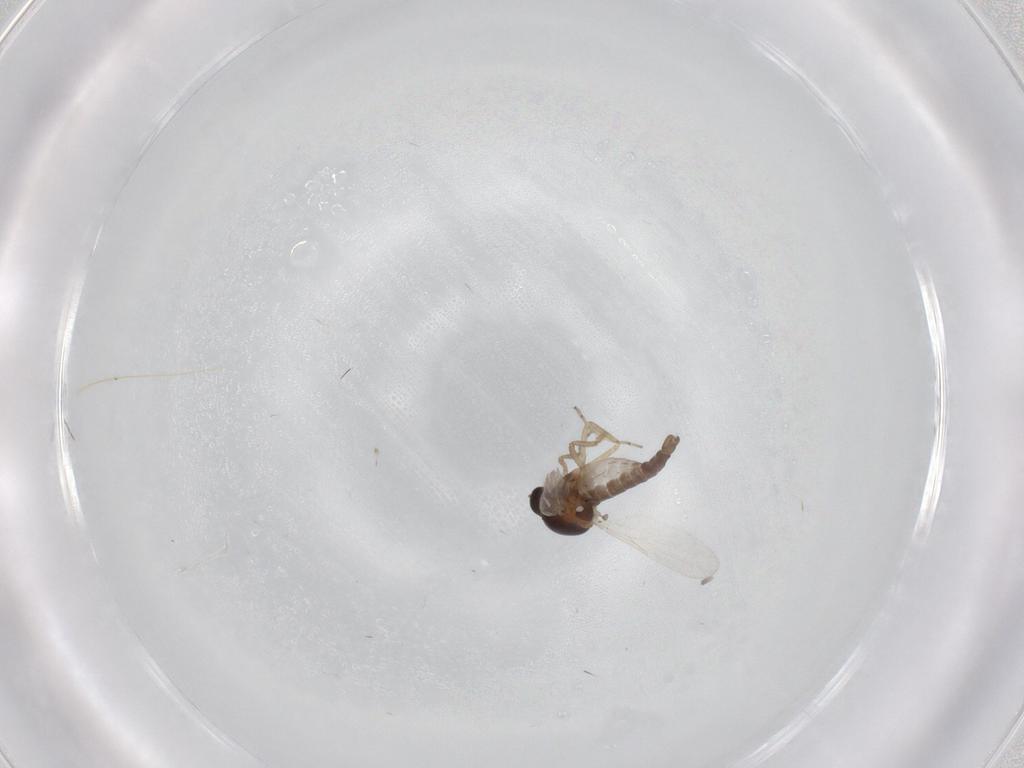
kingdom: Animalia
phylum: Arthropoda
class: Insecta
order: Diptera
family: Ceratopogonidae
